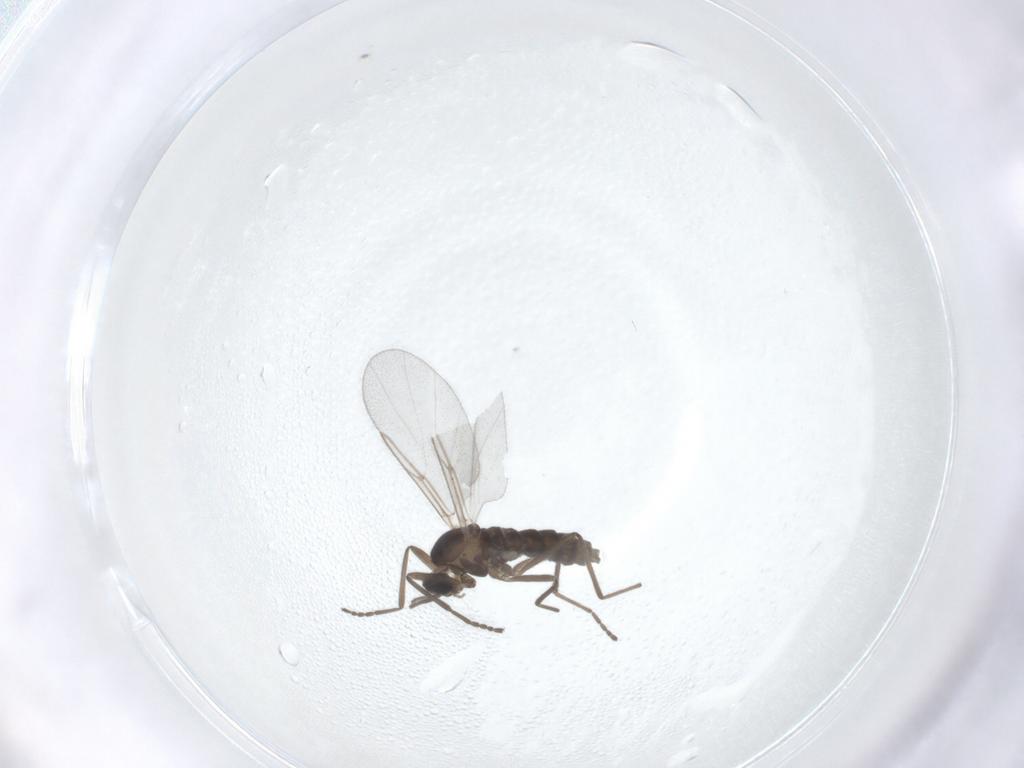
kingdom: Animalia
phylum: Arthropoda
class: Insecta
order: Diptera
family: Cecidomyiidae
